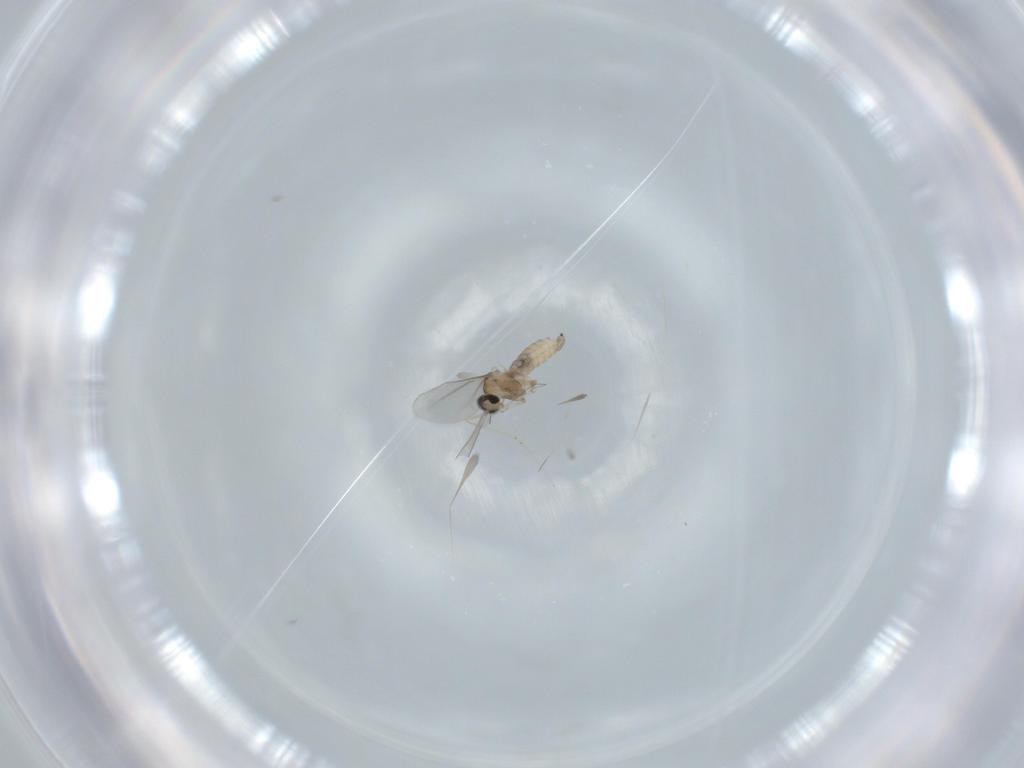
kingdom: Animalia
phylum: Arthropoda
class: Insecta
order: Diptera
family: Cecidomyiidae
